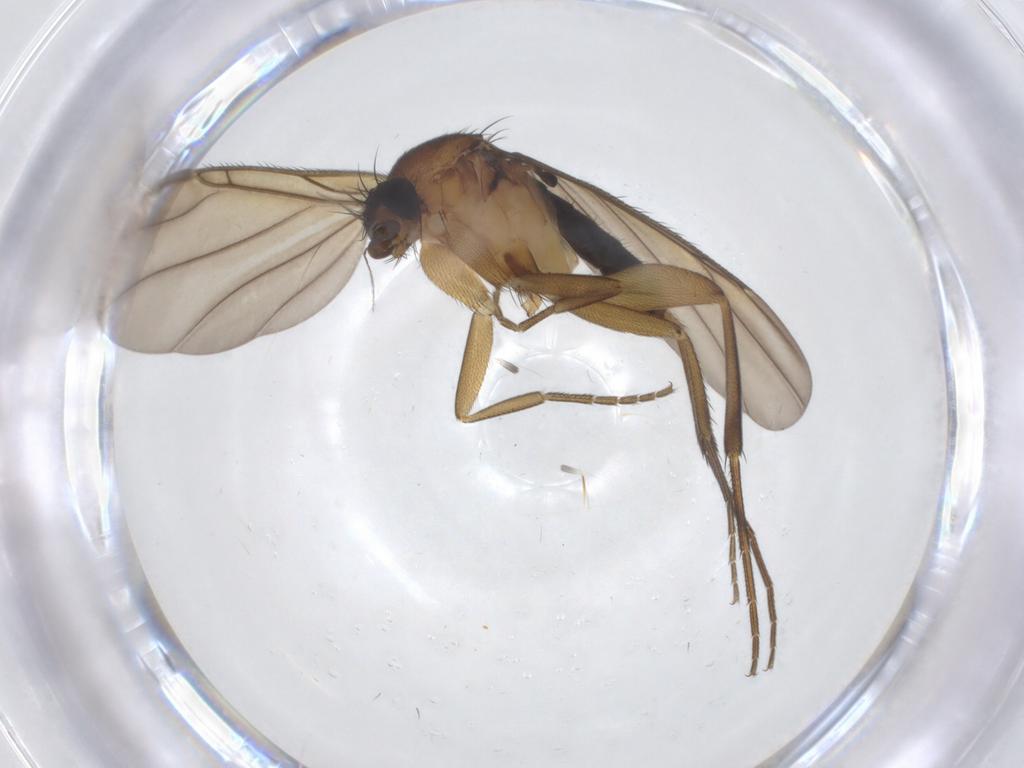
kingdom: Animalia
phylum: Arthropoda
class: Insecta
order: Diptera
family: Phoridae
